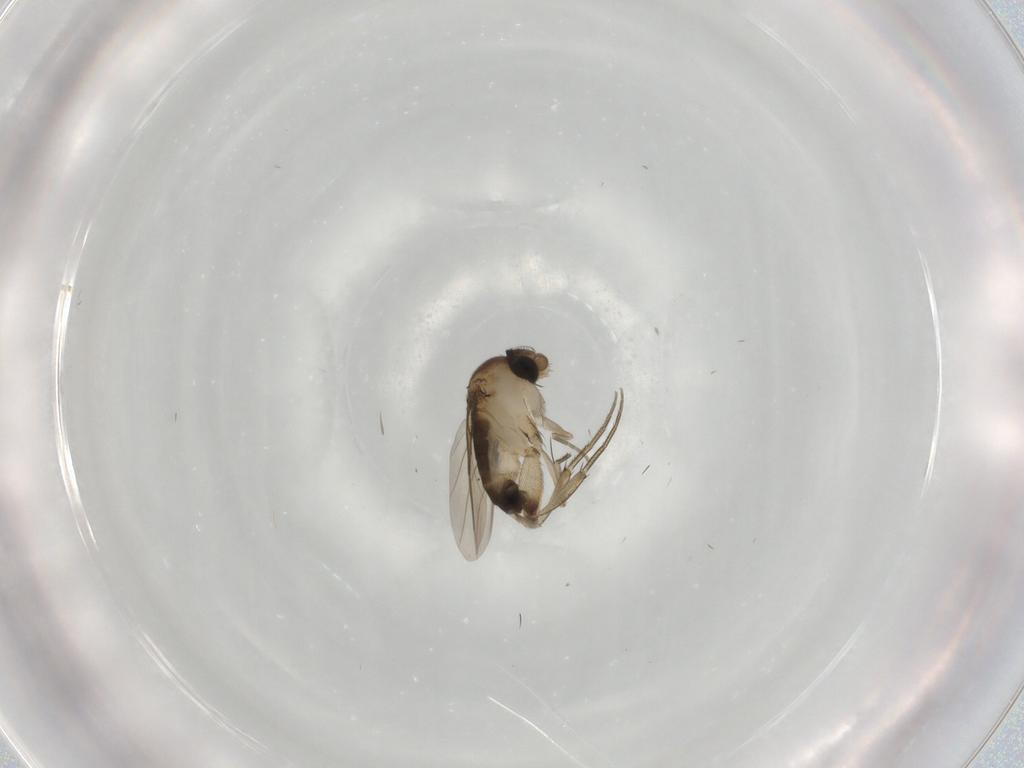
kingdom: Animalia
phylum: Arthropoda
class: Insecta
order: Diptera
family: Phoridae
